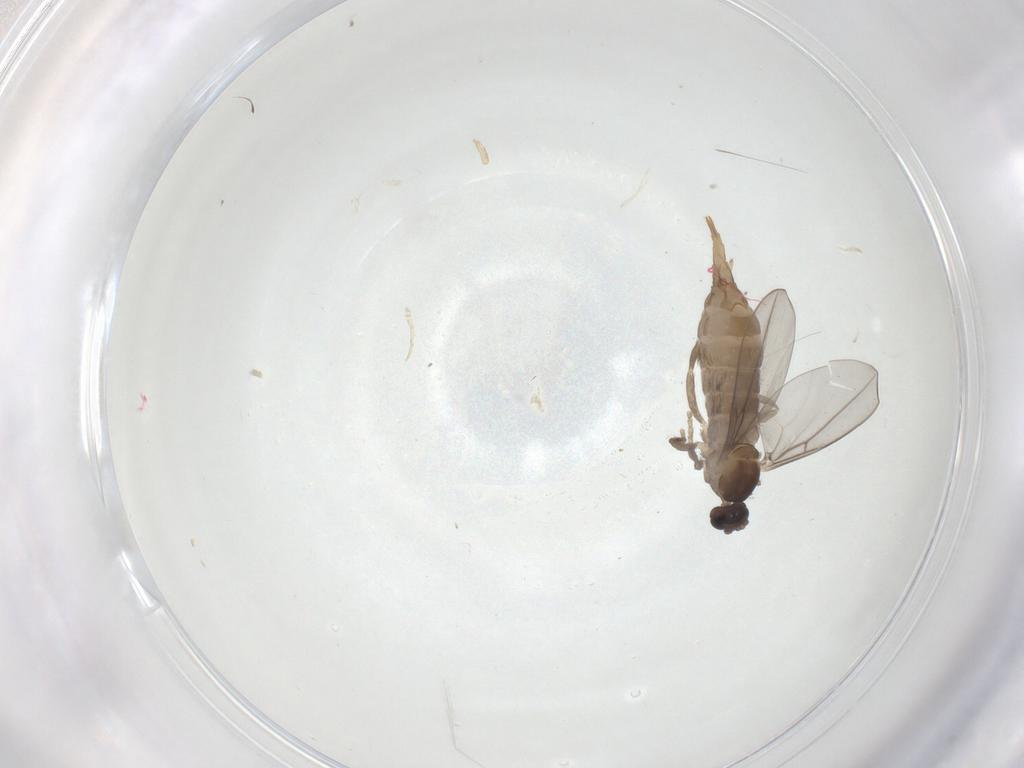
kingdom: Animalia
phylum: Arthropoda
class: Insecta
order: Diptera
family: Cecidomyiidae
